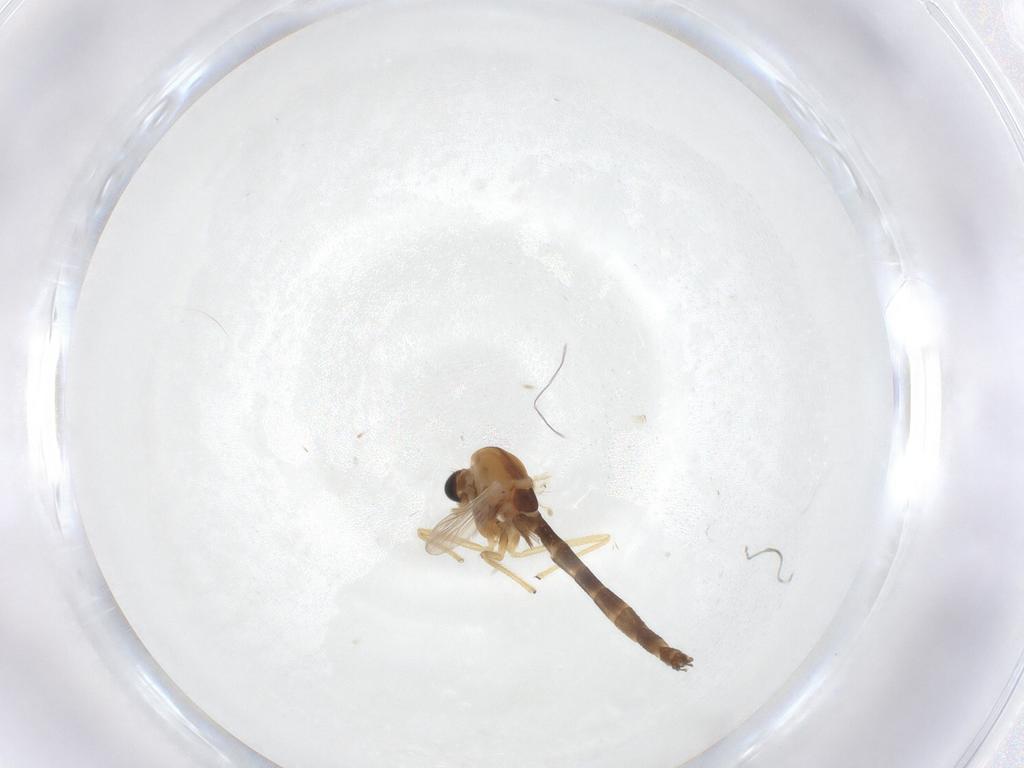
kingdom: Animalia
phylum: Arthropoda
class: Insecta
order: Diptera
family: Chironomidae
